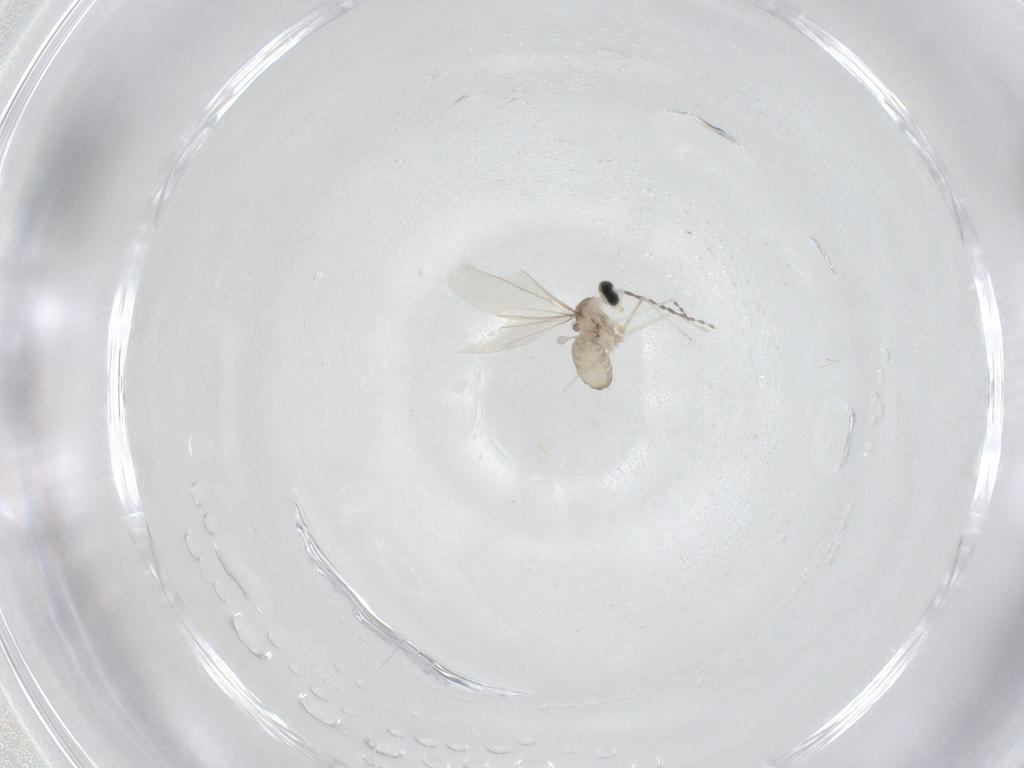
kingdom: Animalia
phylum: Arthropoda
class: Insecta
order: Diptera
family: Cecidomyiidae
